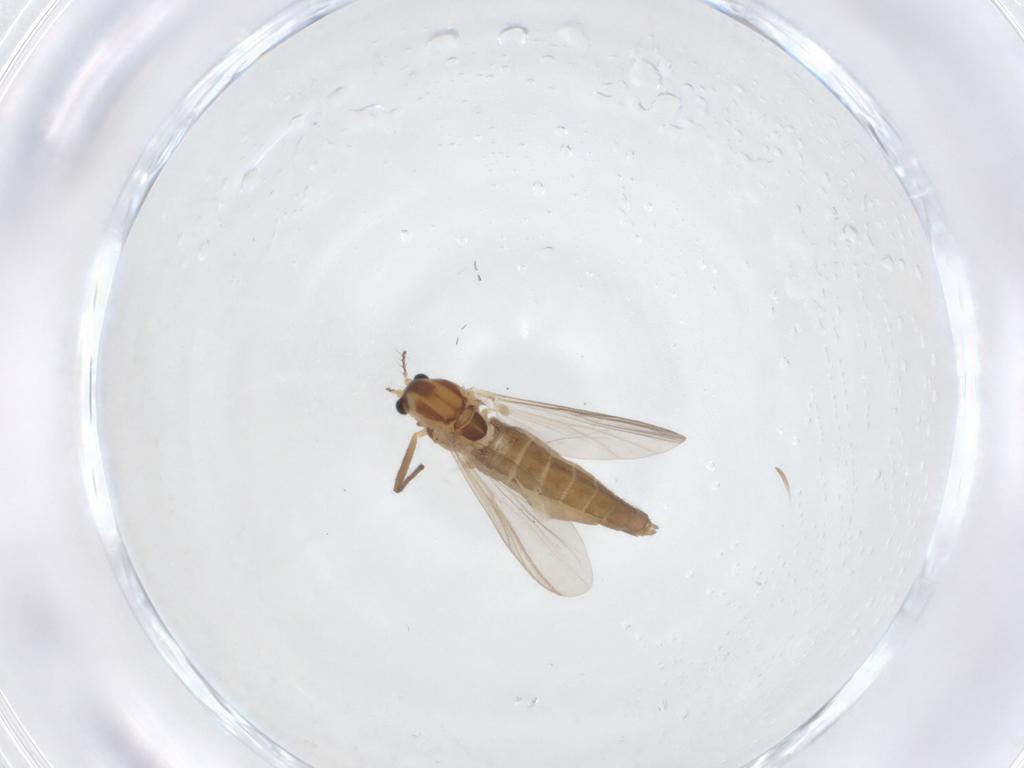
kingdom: Animalia
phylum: Arthropoda
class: Insecta
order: Diptera
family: Chironomidae
